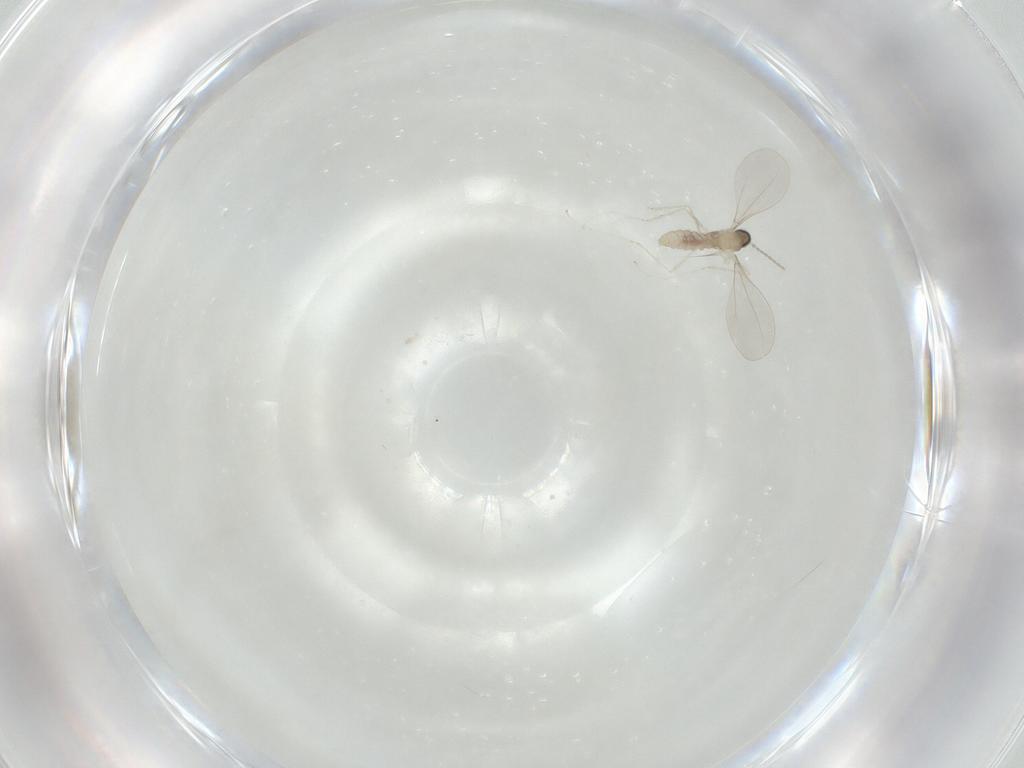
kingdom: Animalia
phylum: Arthropoda
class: Insecta
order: Diptera
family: Cecidomyiidae
